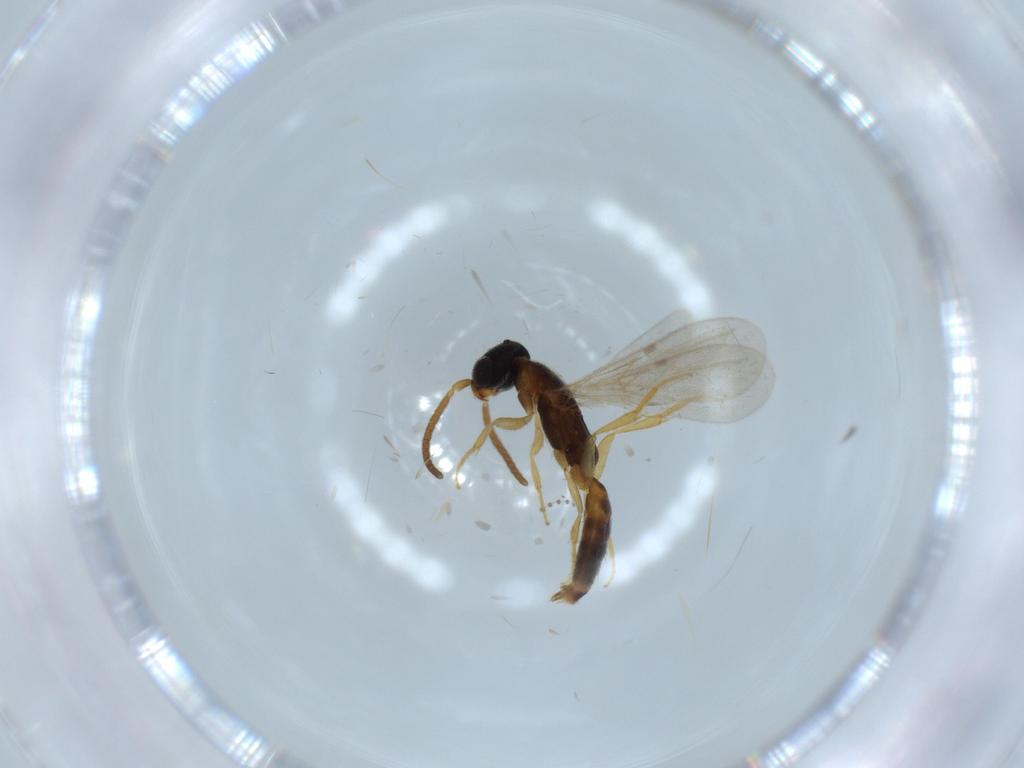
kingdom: Animalia
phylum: Arthropoda
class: Insecta
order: Hymenoptera
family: Bethylidae
